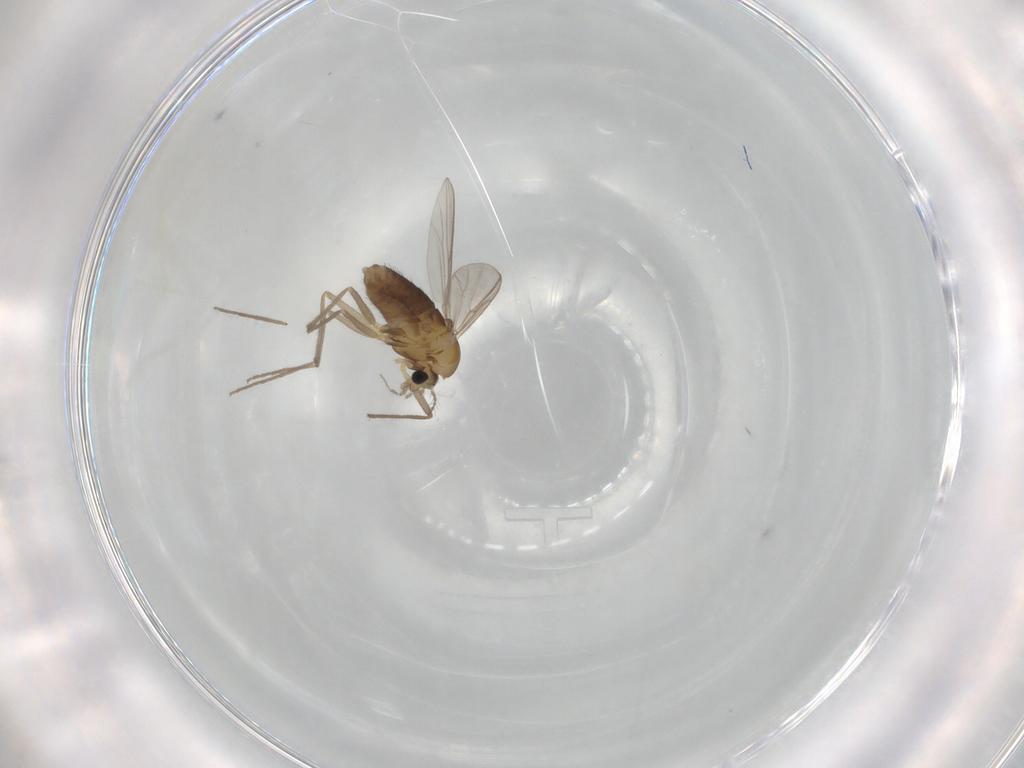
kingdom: Animalia
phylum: Arthropoda
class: Insecta
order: Diptera
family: Chironomidae
